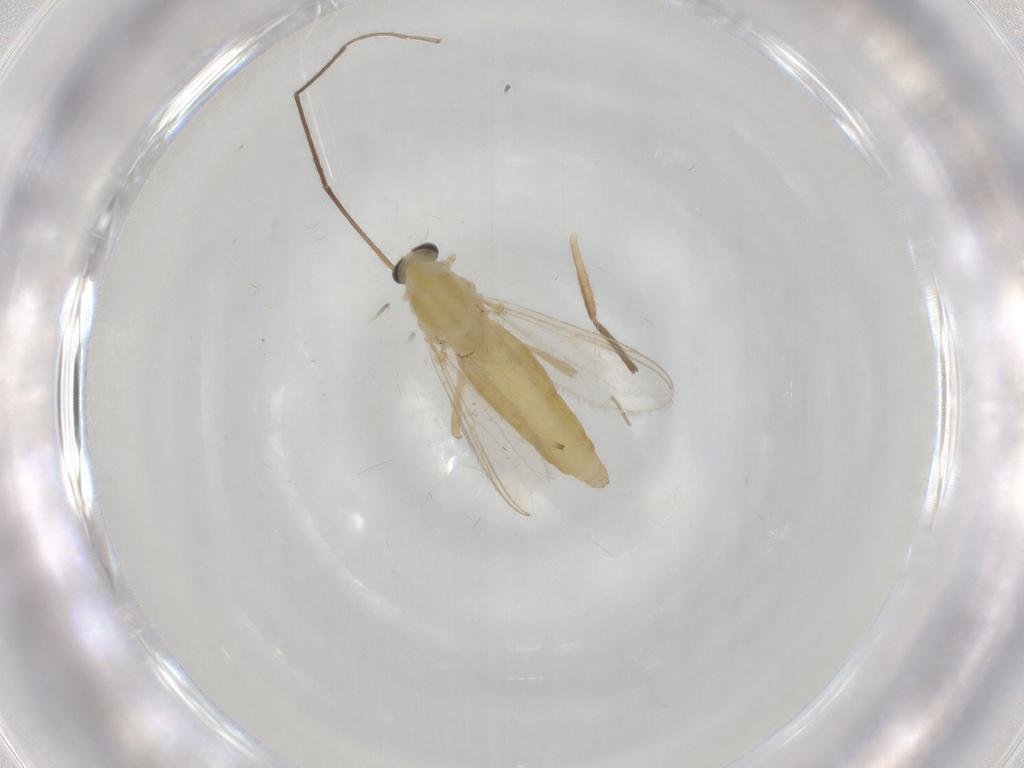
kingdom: Animalia
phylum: Arthropoda
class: Insecta
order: Diptera
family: Chironomidae
